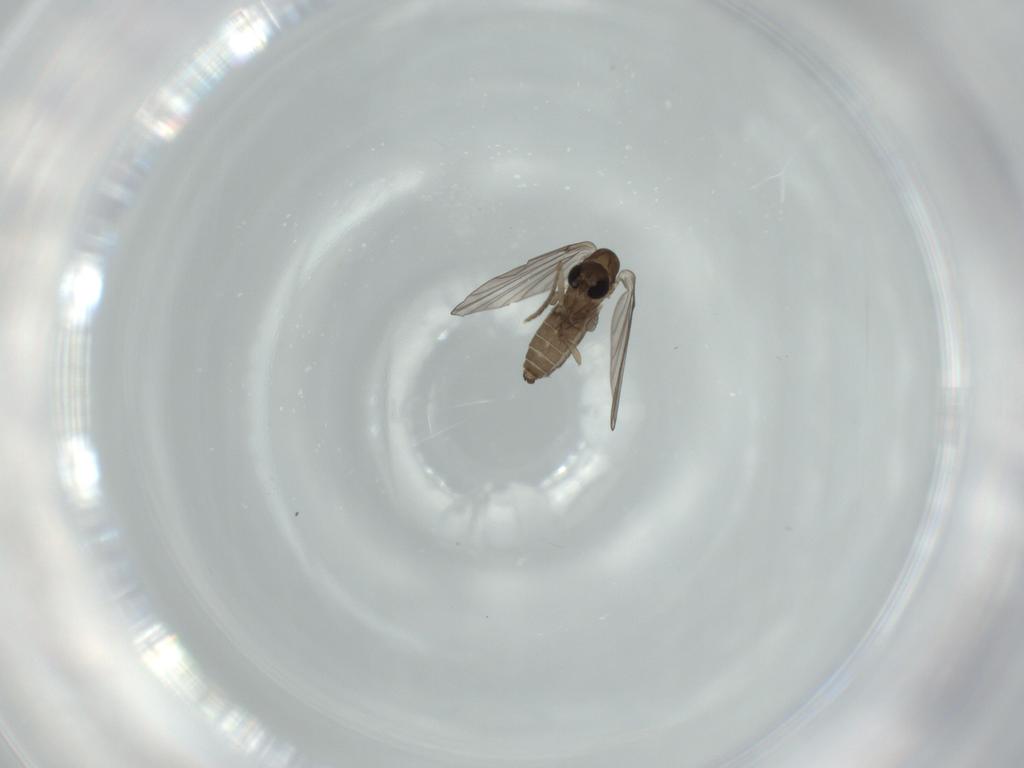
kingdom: Animalia
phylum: Arthropoda
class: Insecta
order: Diptera
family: Psychodidae
